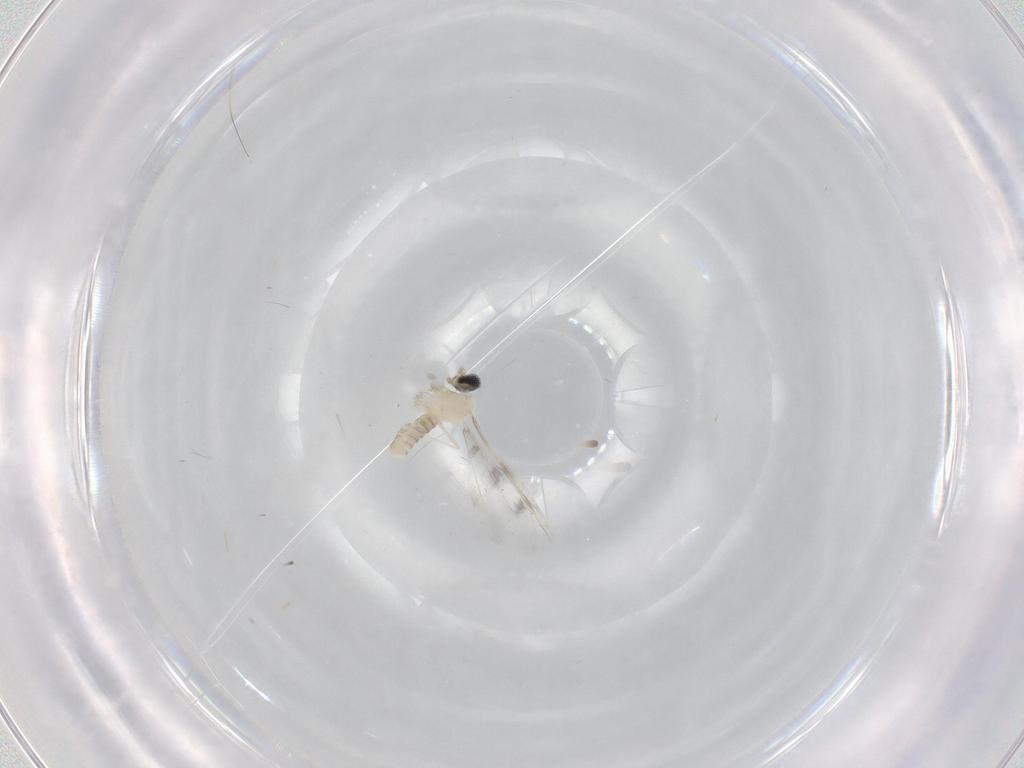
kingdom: Animalia
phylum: Arthropoda
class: Insecta
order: Diptera
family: Cecidomyiidae
